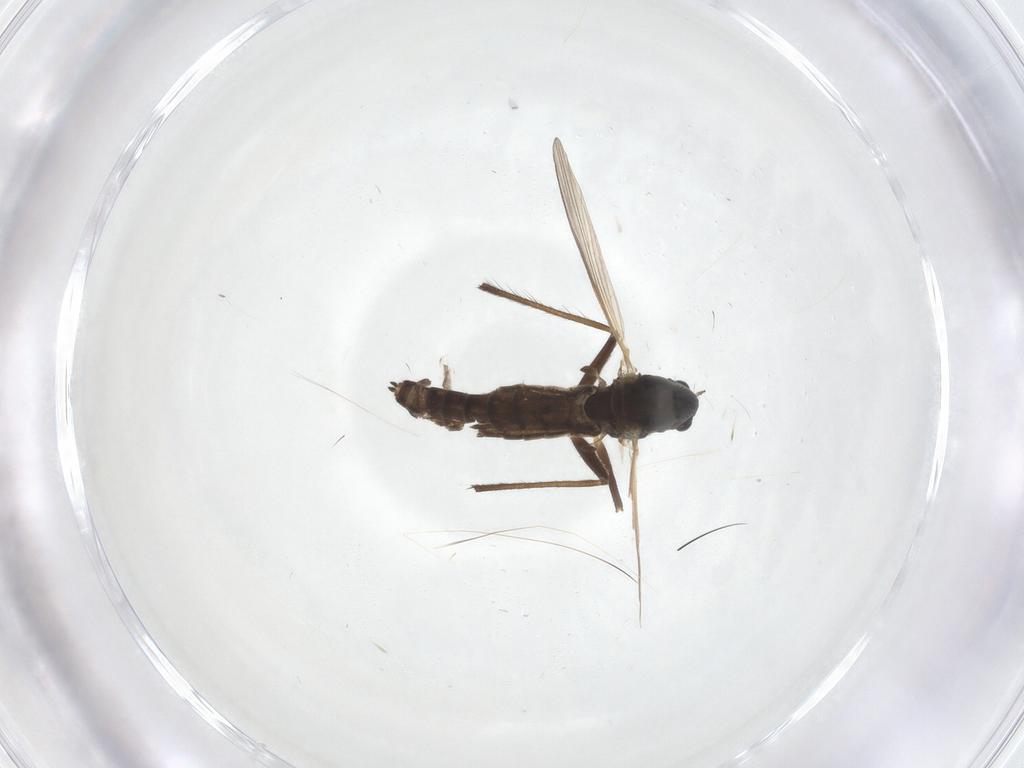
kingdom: Animalia
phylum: Arthropoda
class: Insecta
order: Diptera
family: Chironomidae
